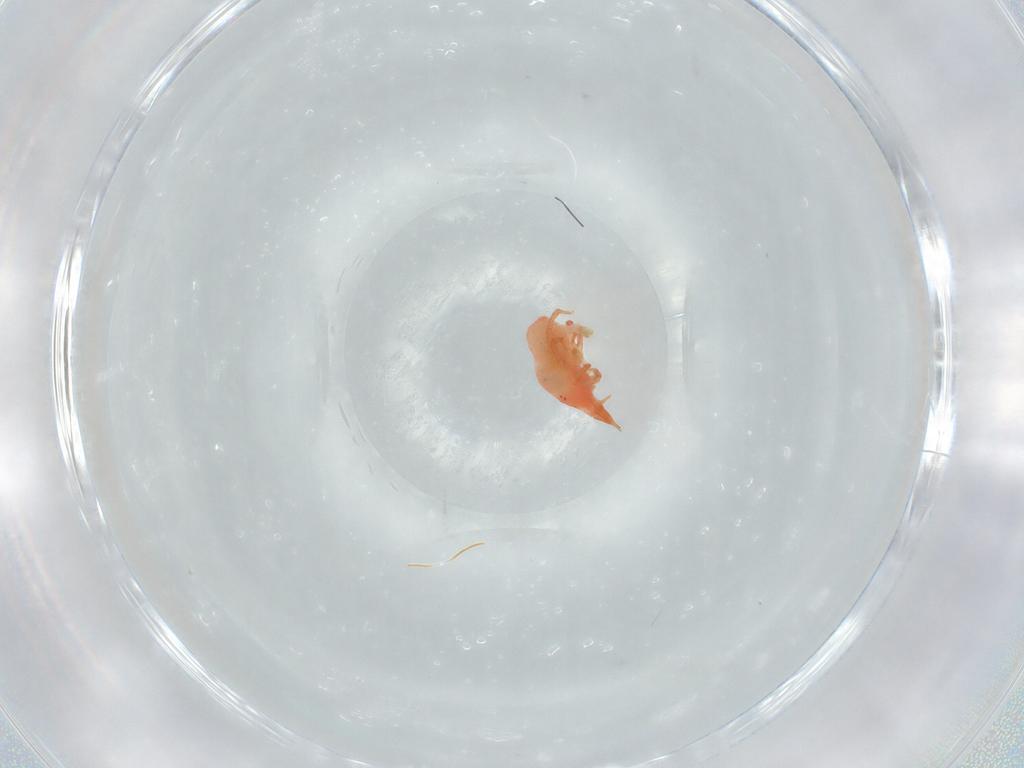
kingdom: Animalia
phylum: Arthropoda
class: Arachnida
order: Trombidiformes
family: Bdellidae
